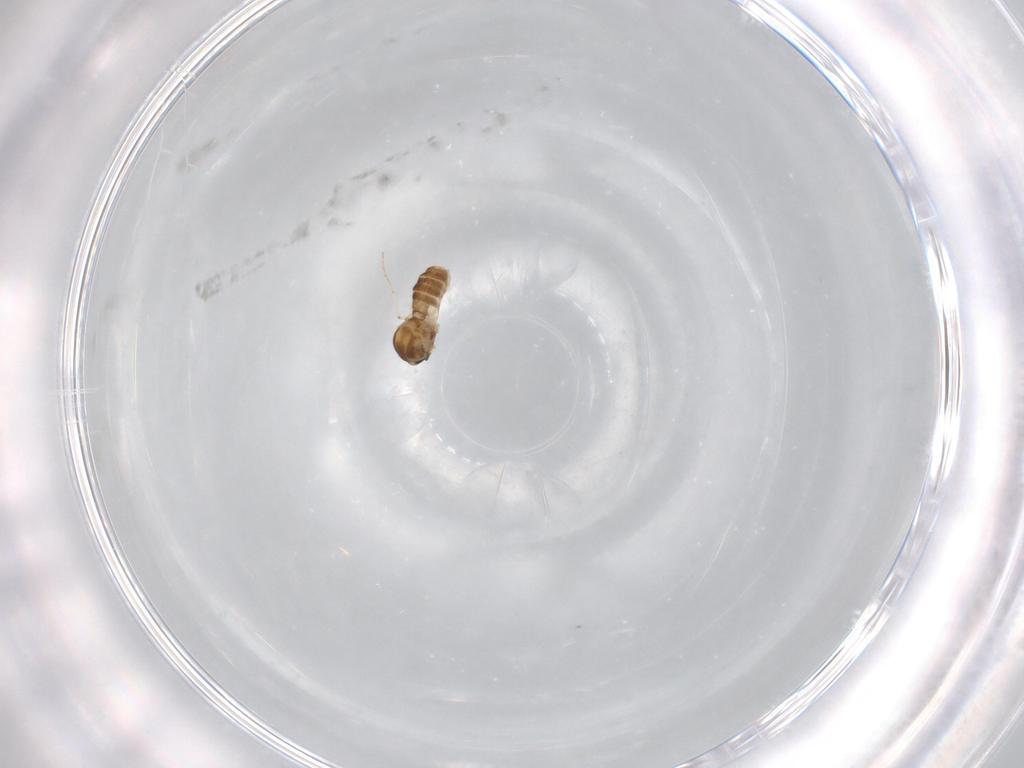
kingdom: Animalia
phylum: Arthropoda
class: Insecta
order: Diptera
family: Ceratopogonidae
